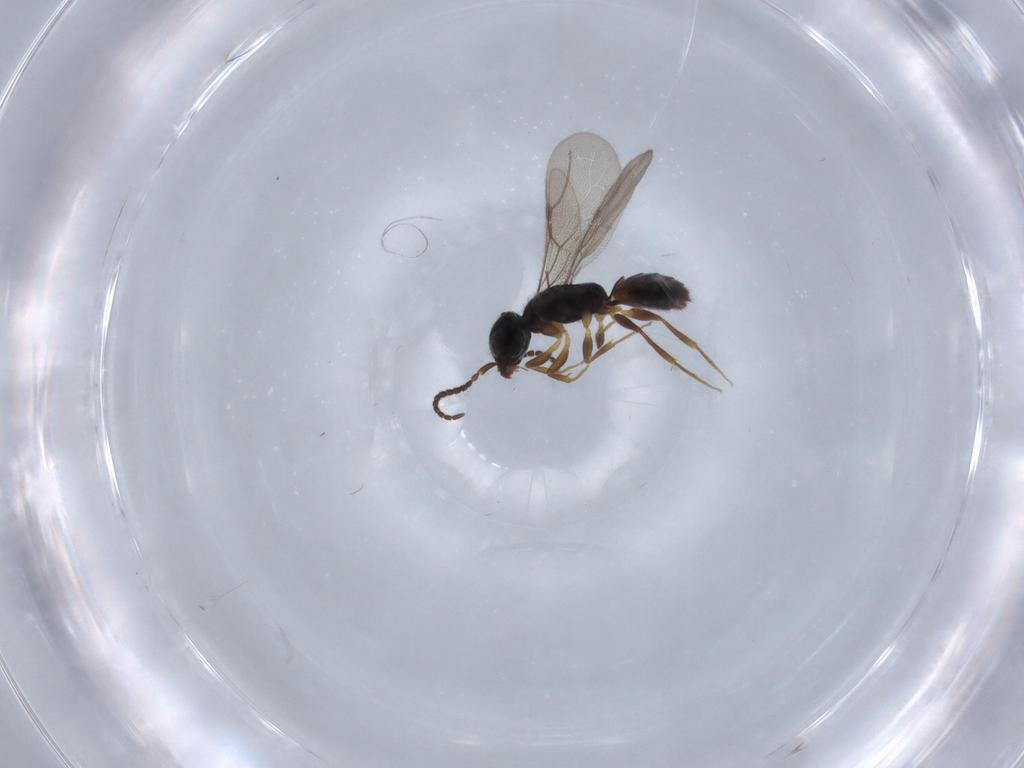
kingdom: Animalia
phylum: Arthropoda
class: Insecta
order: Hymenoptera
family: Bethylidae
